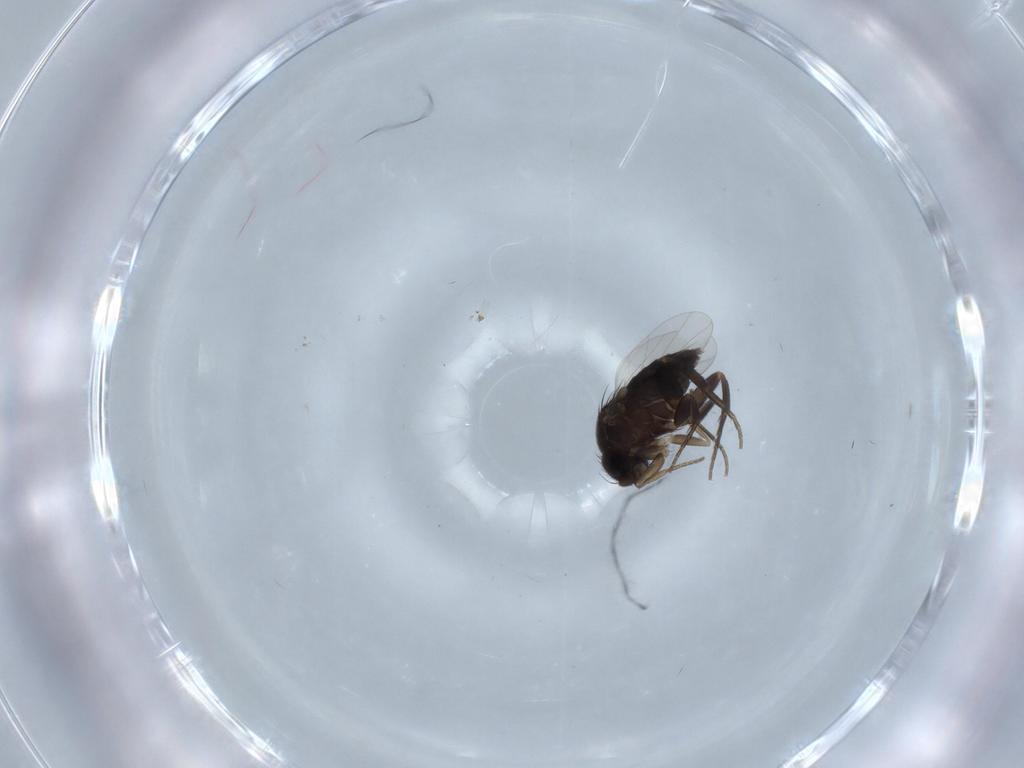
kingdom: Animalia
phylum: Arthropoda
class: Insecta
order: Diptera
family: Phoridae
